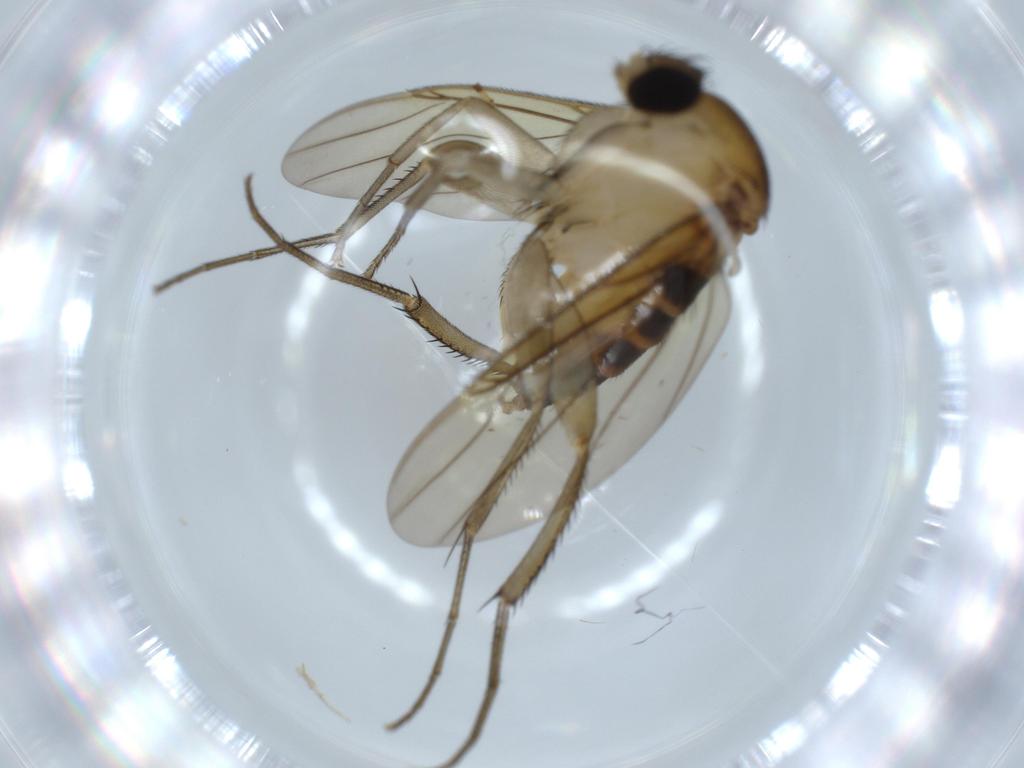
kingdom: Animalia
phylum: Arthropoda
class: Insecta
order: Diptera
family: Phoridae
